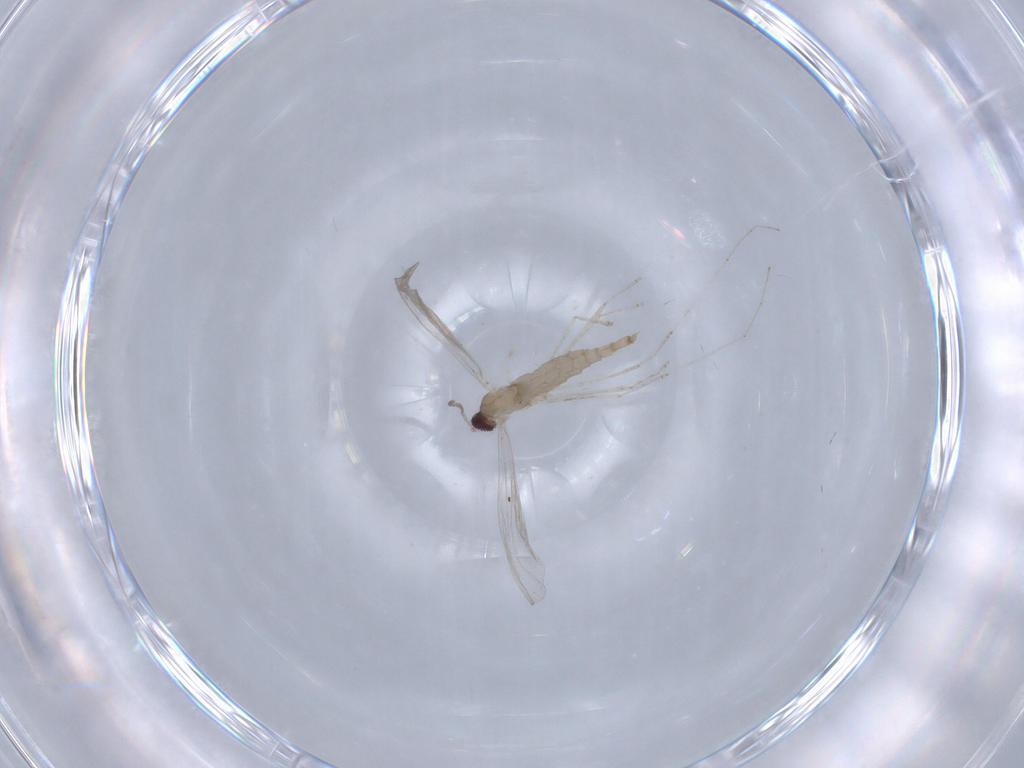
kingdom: Animalia
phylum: Arthropoda
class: Insecta
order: Diptera
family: Cecidomyiidae
